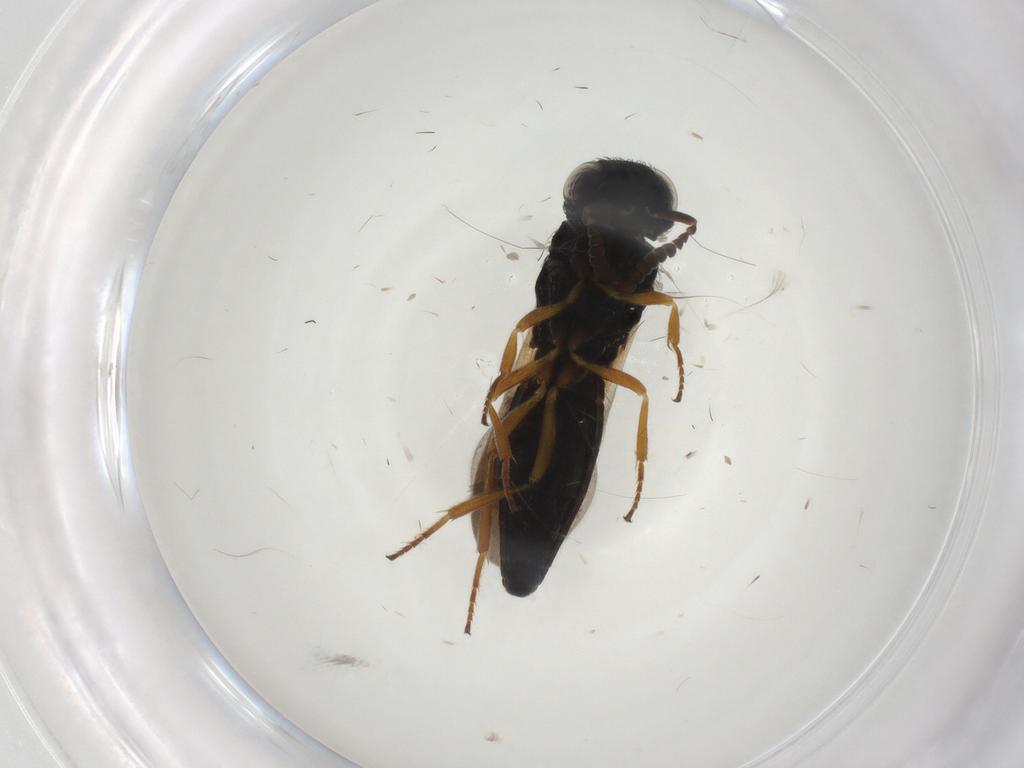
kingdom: Animalia
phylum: Arthropoda
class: Insecta
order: Hymenoptera
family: Scelionidae
